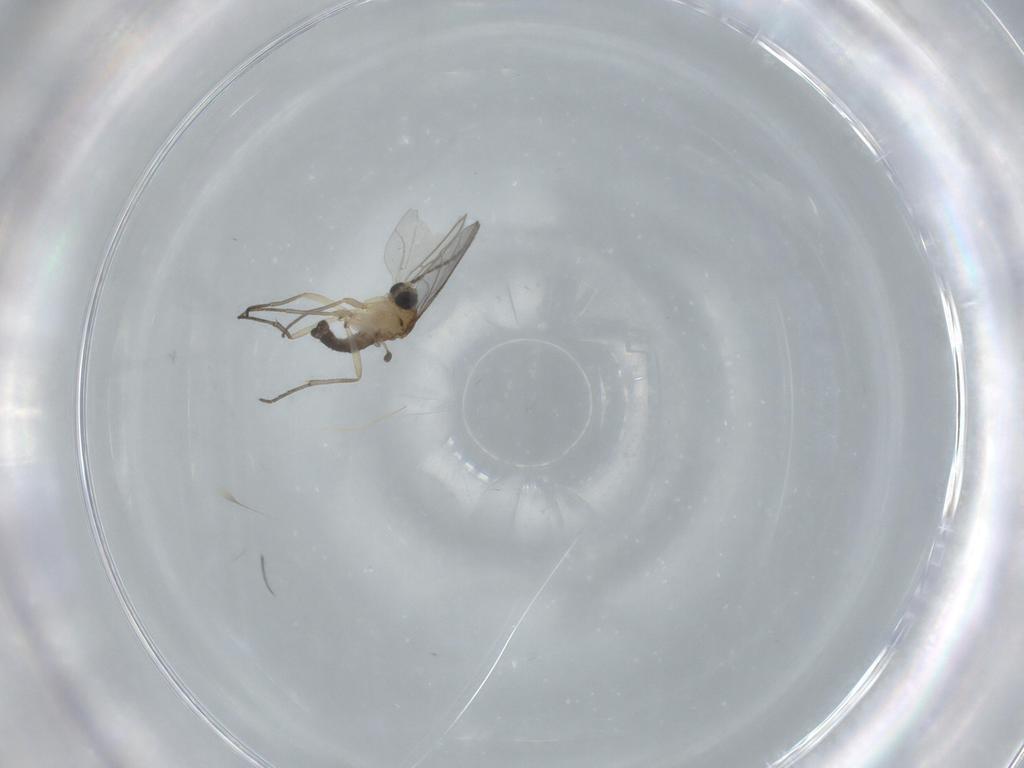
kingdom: Animalia
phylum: Arthropoda
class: Insecta
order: Diptera
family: Sciaridae
